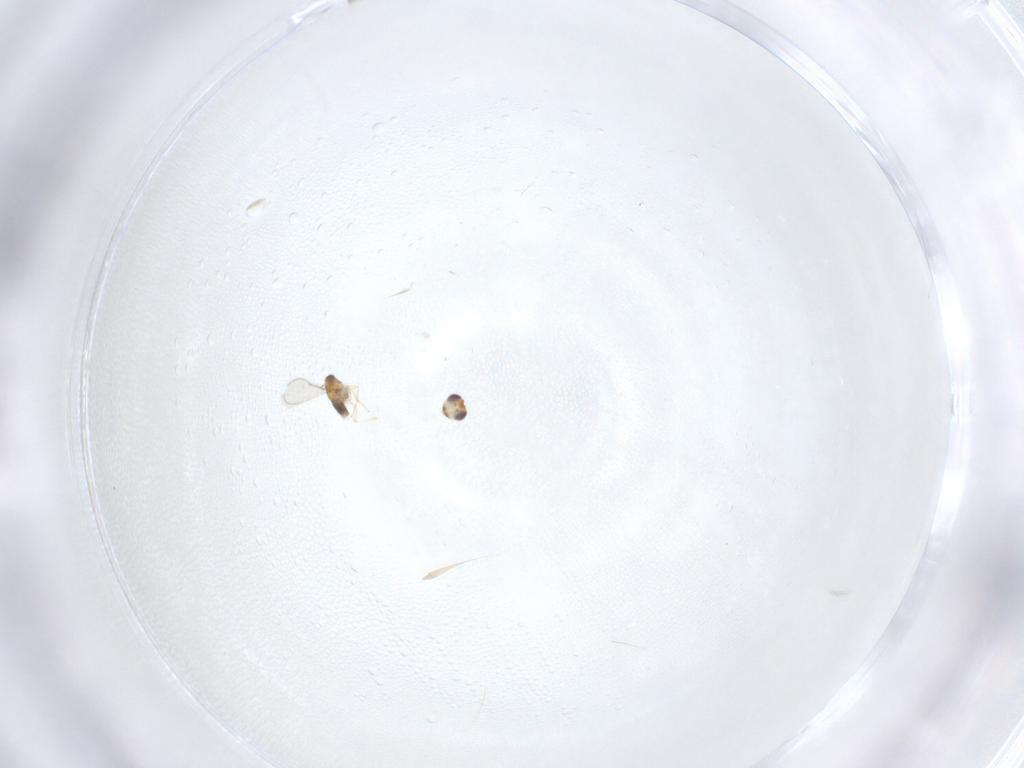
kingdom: Animalia
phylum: Arthropoda
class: Insecta
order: Hymenoptera
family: Aphelinidae
